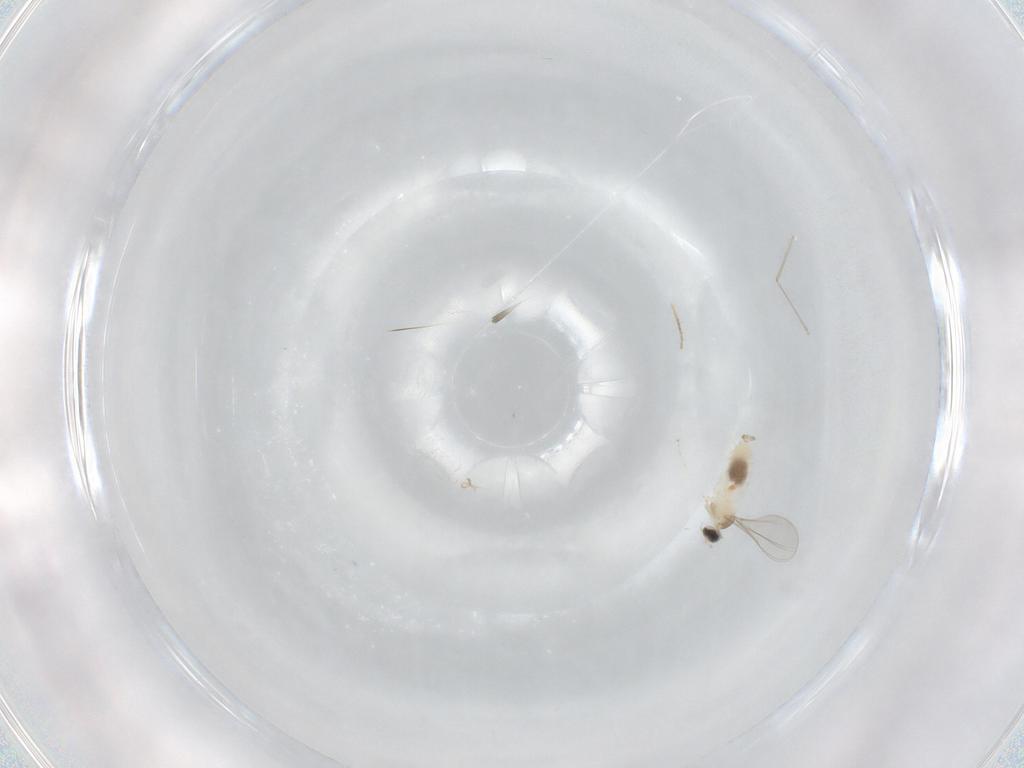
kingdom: Animalia
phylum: Arthropoda
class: Insecta
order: Diptera
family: Cecidomyiidae
